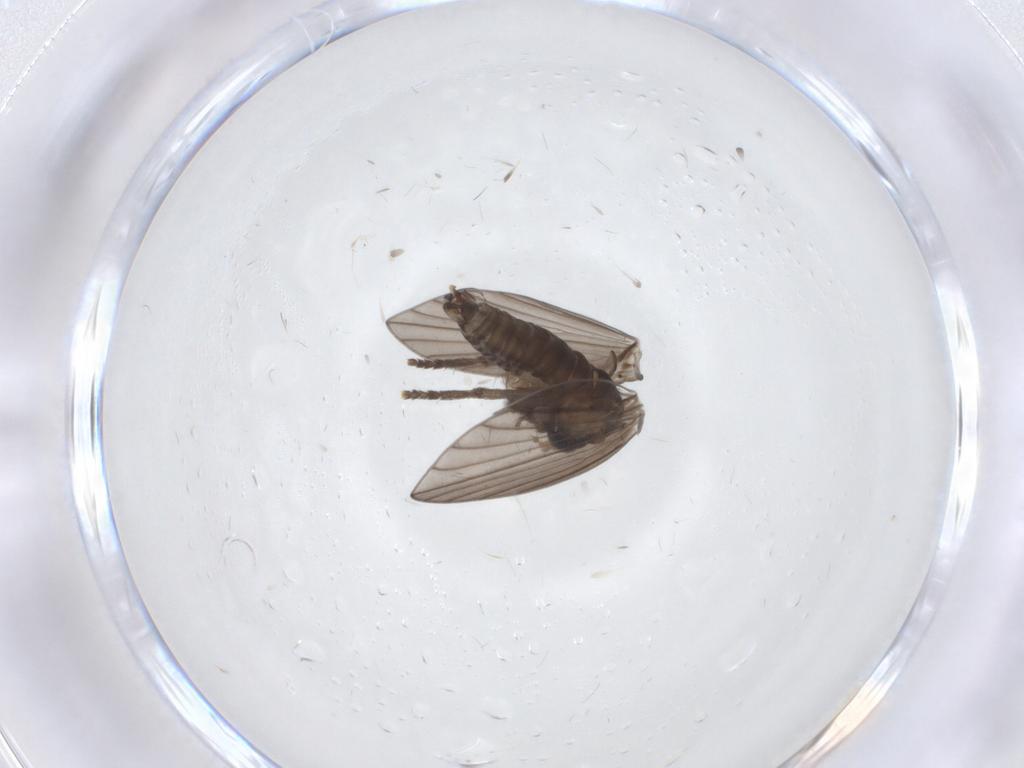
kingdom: Animalia
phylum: Arthropoda
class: Insecta
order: Diptera
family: Psychodidae
